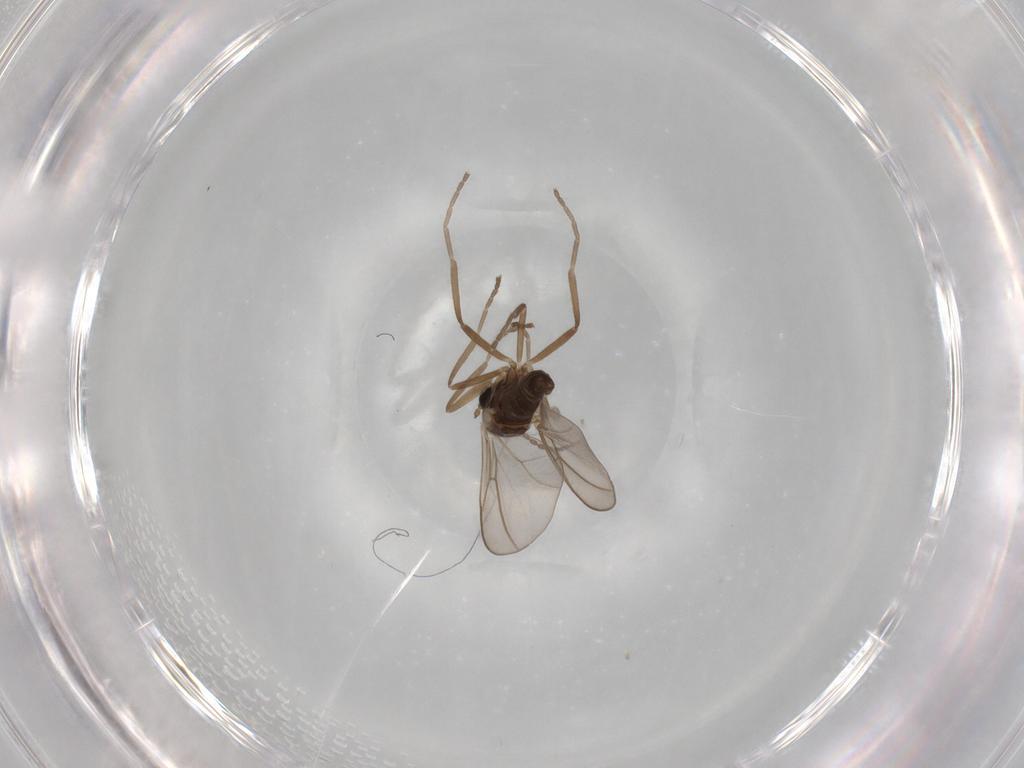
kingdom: Animalia
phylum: Arthropoda
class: Insecta
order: Diptera
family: Cecidomyiidae
